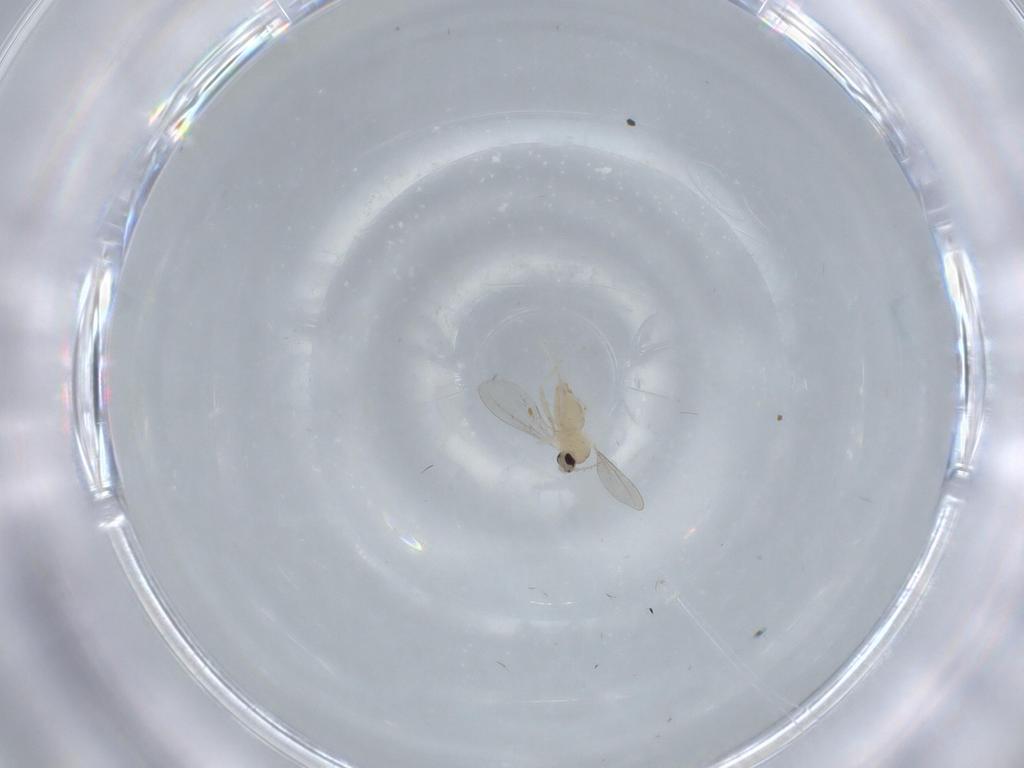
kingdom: Animalia
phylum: Arthropoda
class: Insecta
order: Diptera
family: Cecidomyiidae
